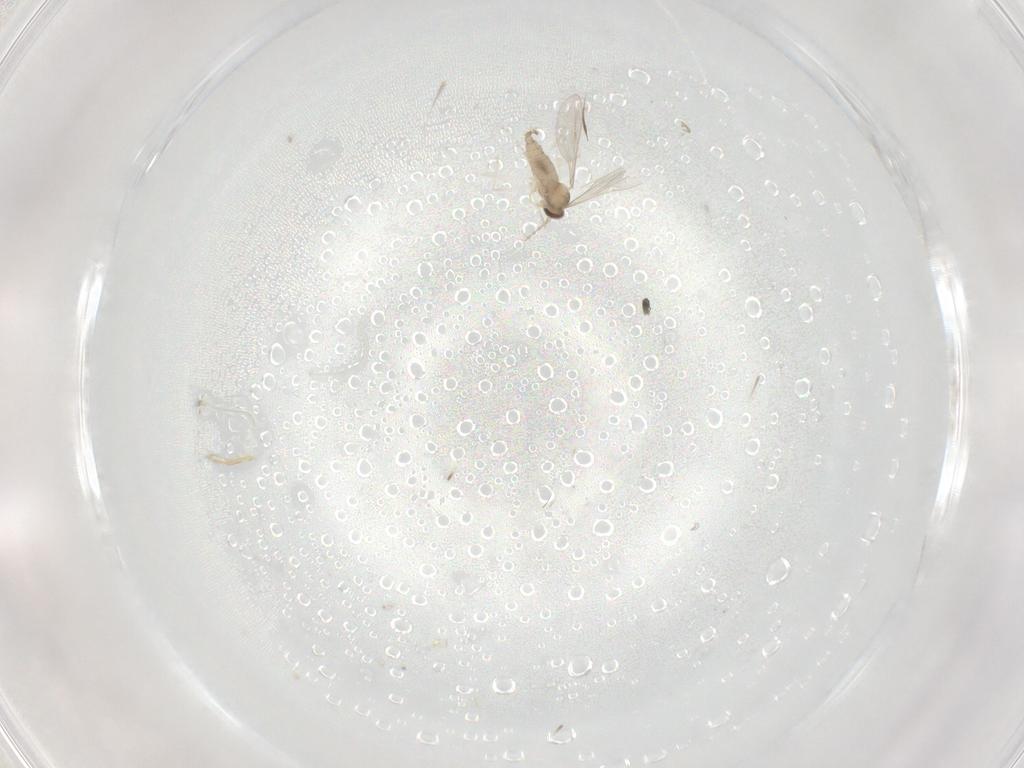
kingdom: Animalia
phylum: Arthropoda
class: Insecta
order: Diptera
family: Cecidomyiidae
